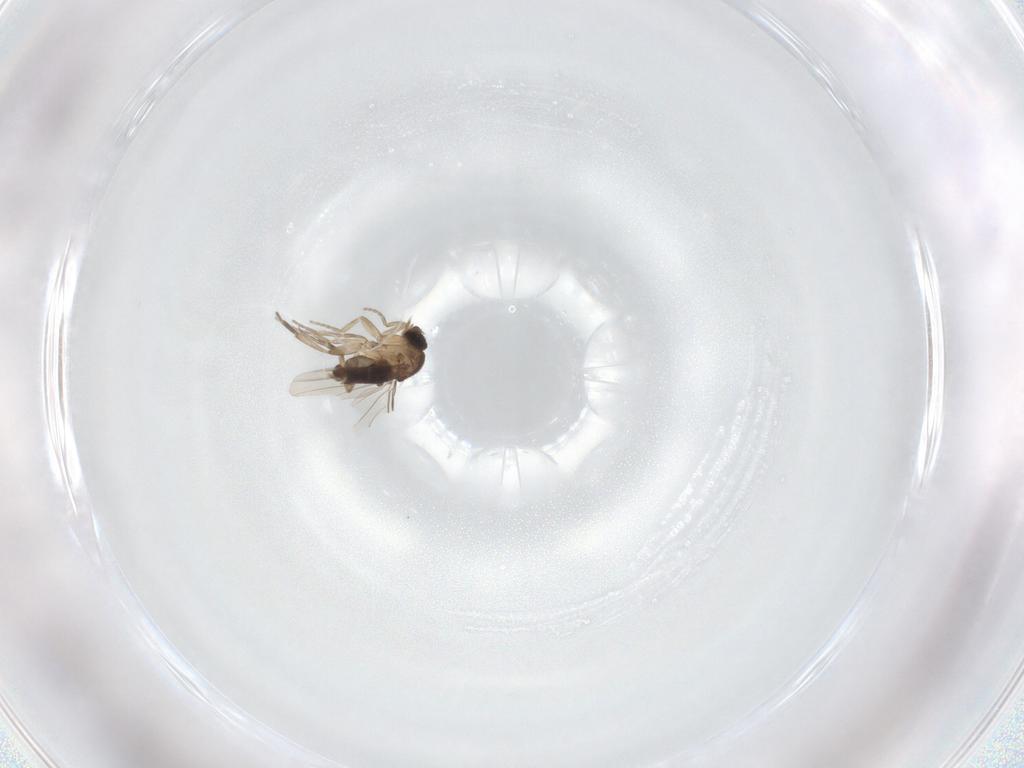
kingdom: Animalia
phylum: Arthropoda
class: Insecta
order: Diptera
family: Phoridae
